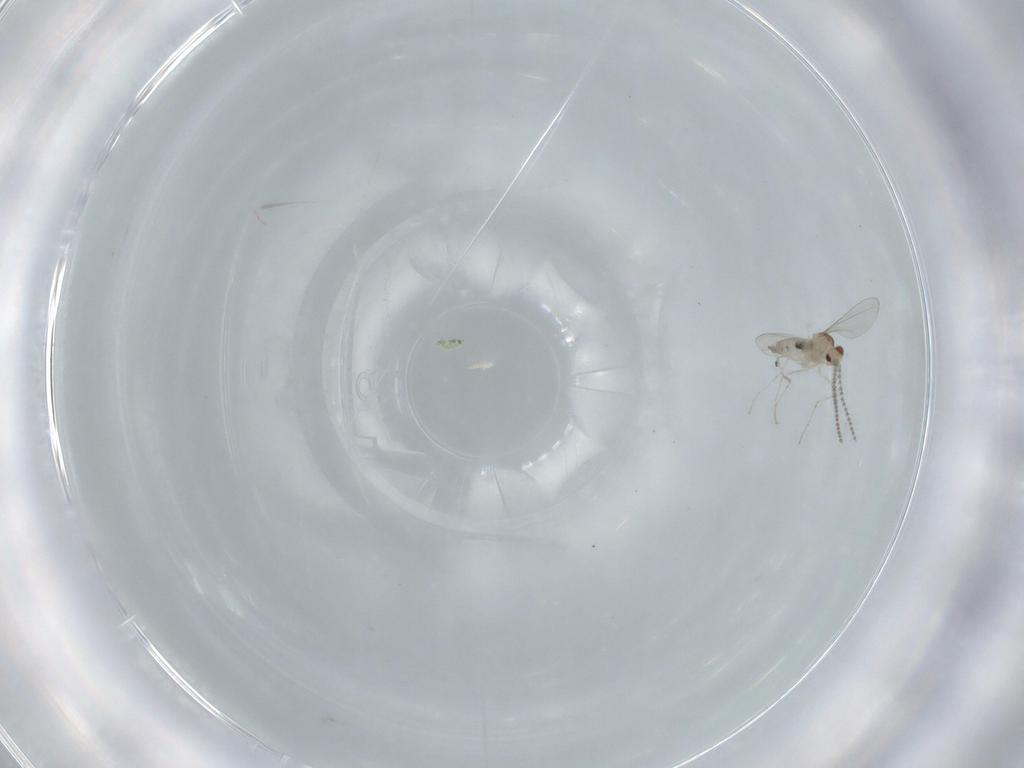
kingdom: Animalia
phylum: Arthropoda
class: Insecta
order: Diptera
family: Cecidomyiidae
